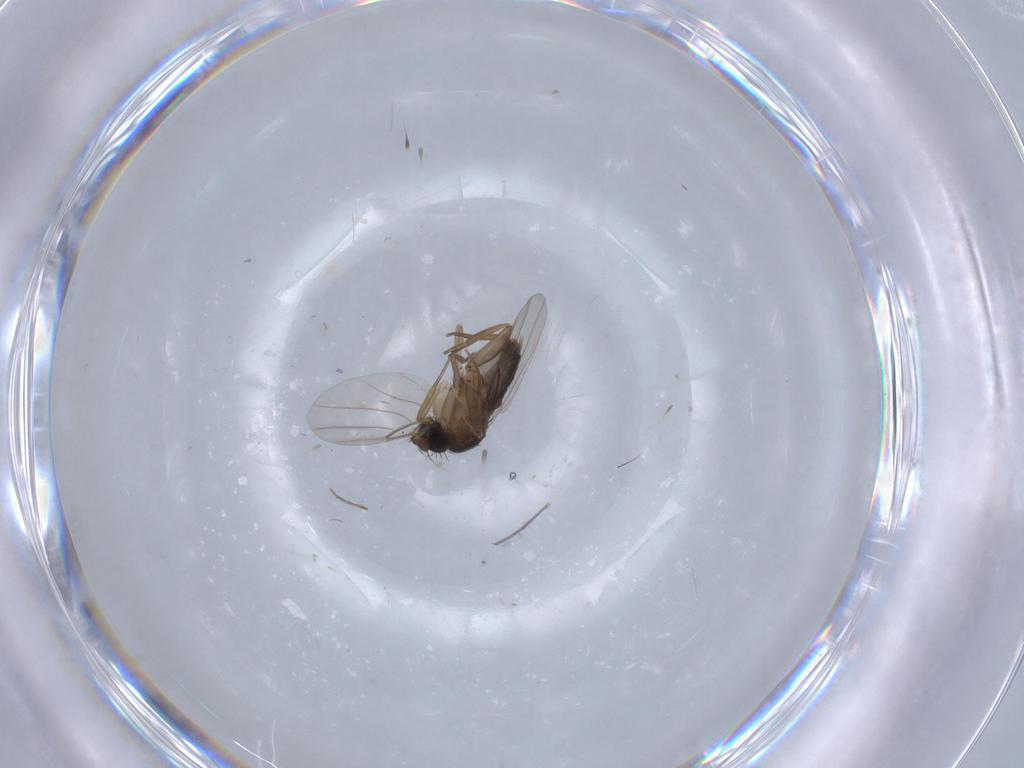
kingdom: Animalia
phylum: Arthropoda
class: Insecta
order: Diptera
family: Phoridae
